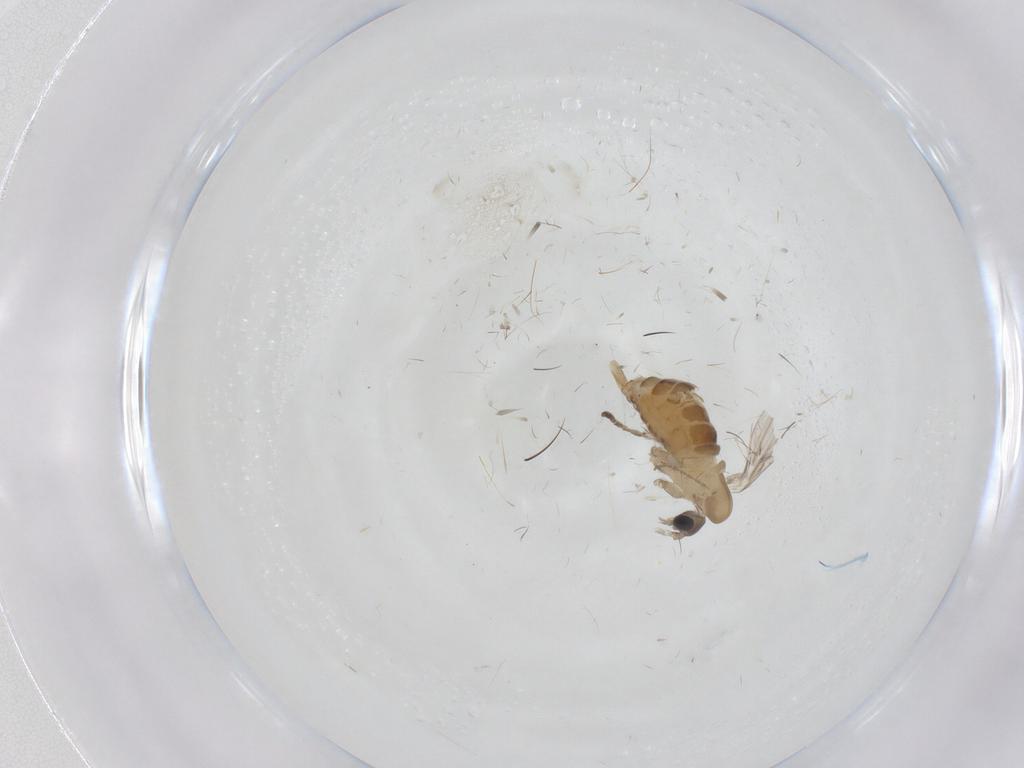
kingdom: Animalia
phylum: Arthropoda
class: Insecta
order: Diptera
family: Psychodidae
